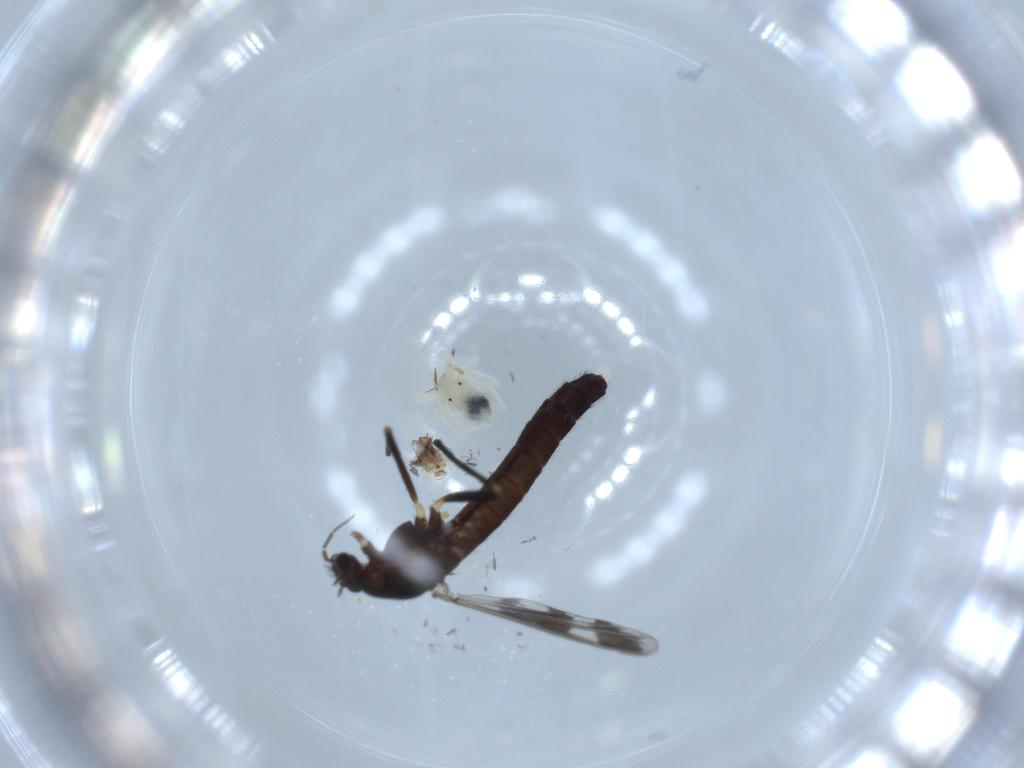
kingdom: Animalia
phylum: Arthropoda
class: Insecta
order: Diptera
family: Chironomidae
